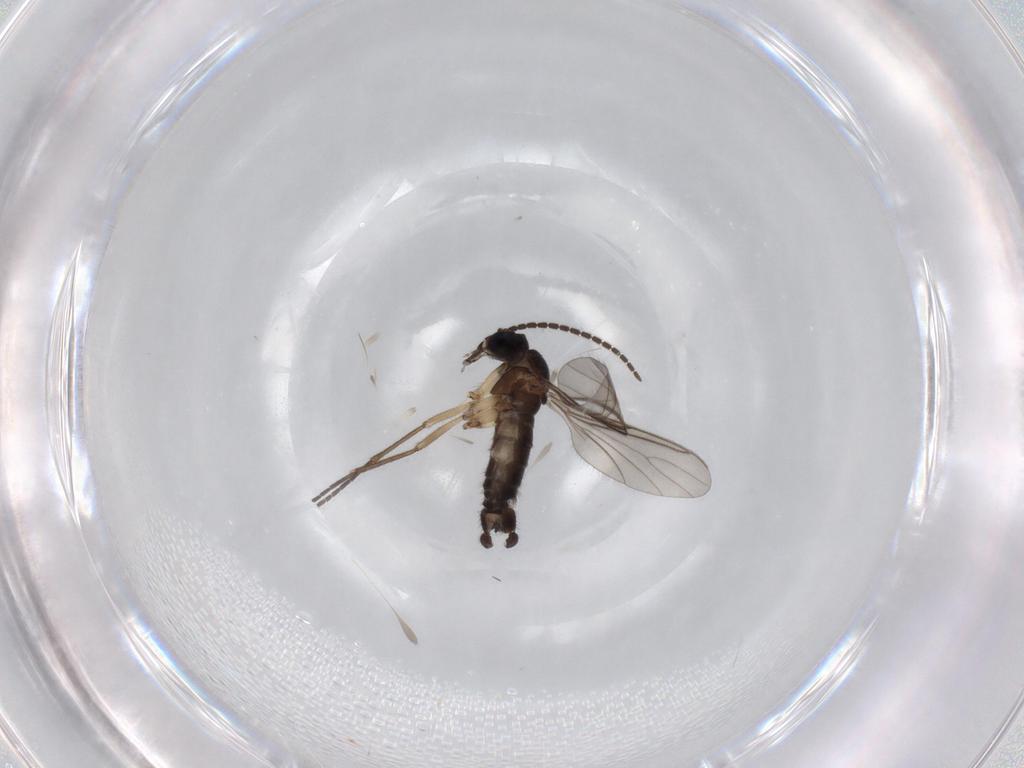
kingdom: Animalia
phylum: Arthropoda
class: Insecta
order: Diptera
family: Sciaridae
